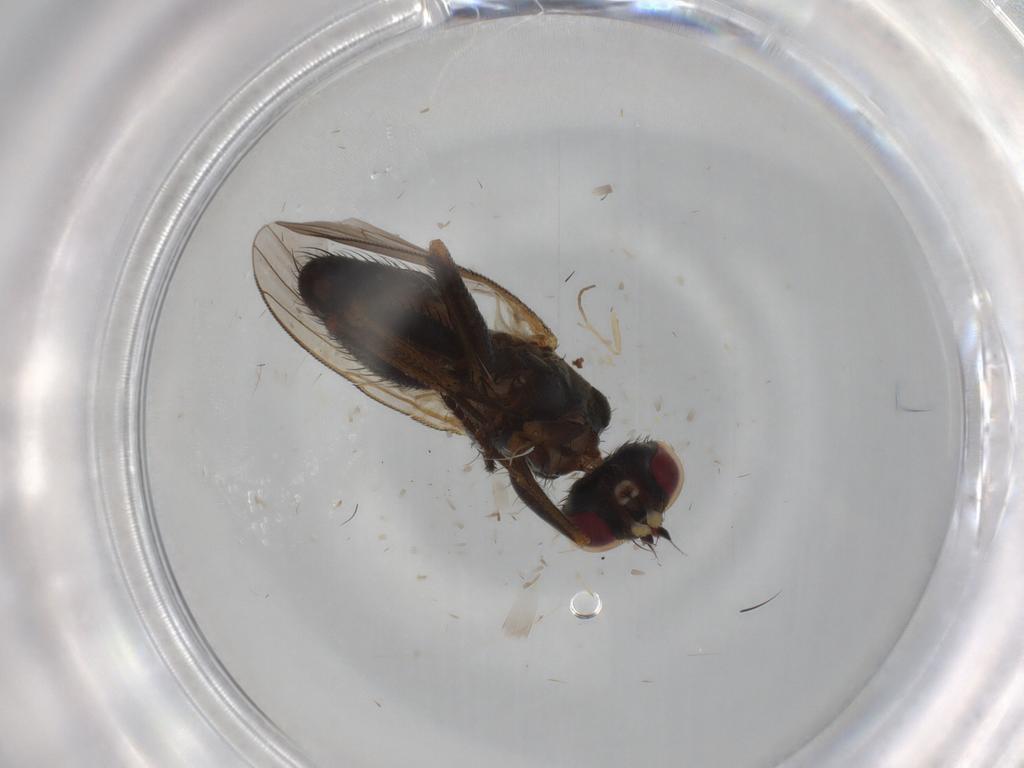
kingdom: Animalia
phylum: Arthropoda
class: Insecta
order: Diptera
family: Muscidae
